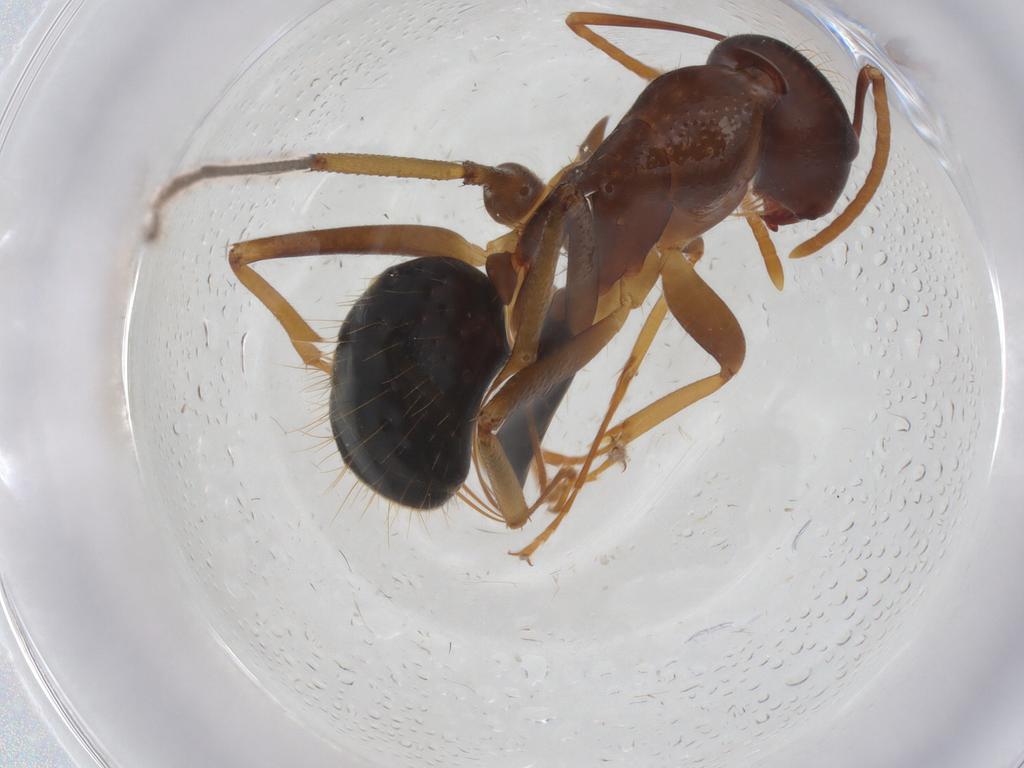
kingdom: Animalia
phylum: Arthropoda
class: Insecta
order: Hymenoptera
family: Formicidae
